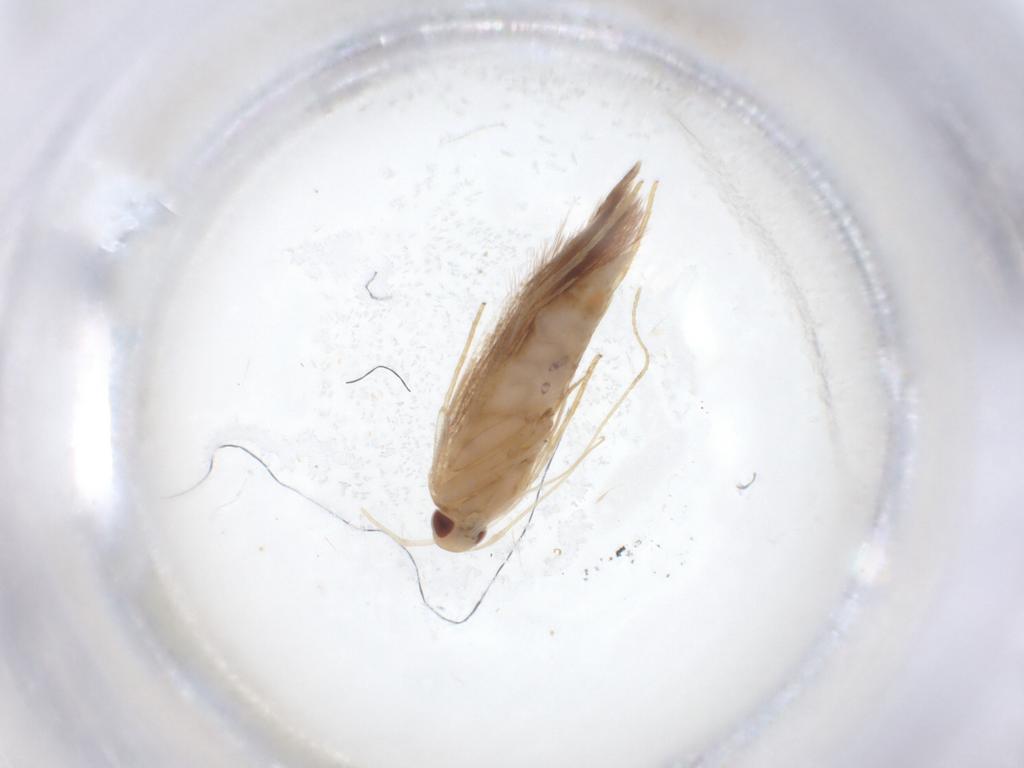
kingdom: Animalia
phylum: Arthropoda
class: Insecta
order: Lepidoptera
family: Cosmopterigidae
